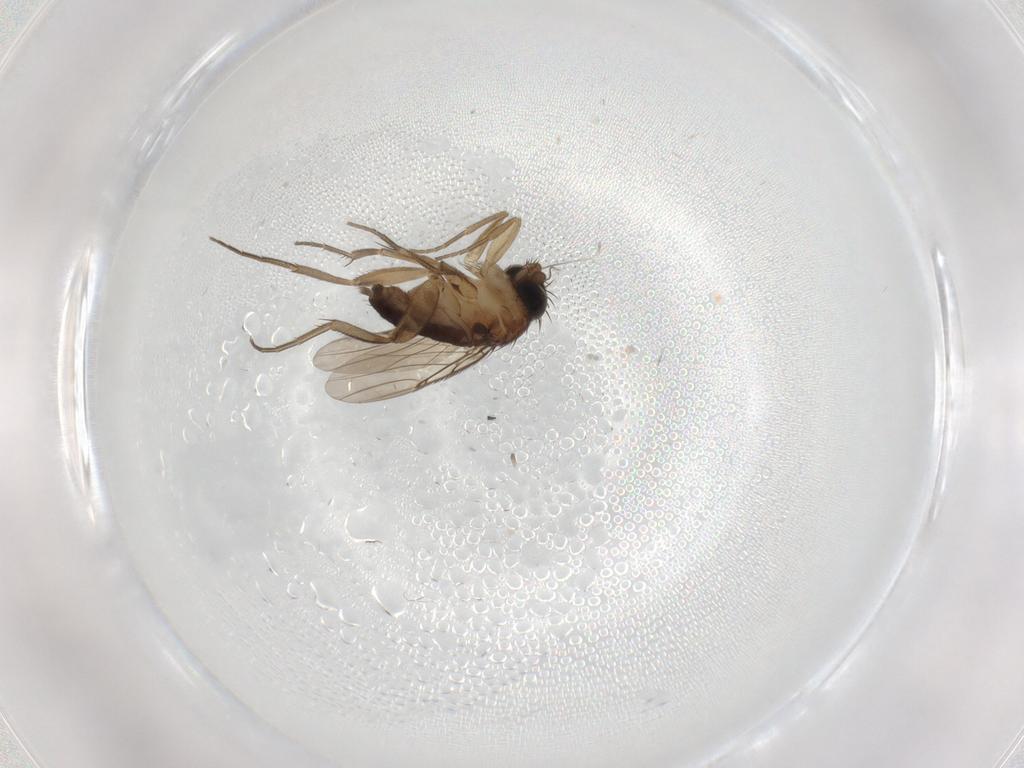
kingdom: Animalia
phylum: Arthropoda
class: Insecta
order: Diptera
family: Phoridae
